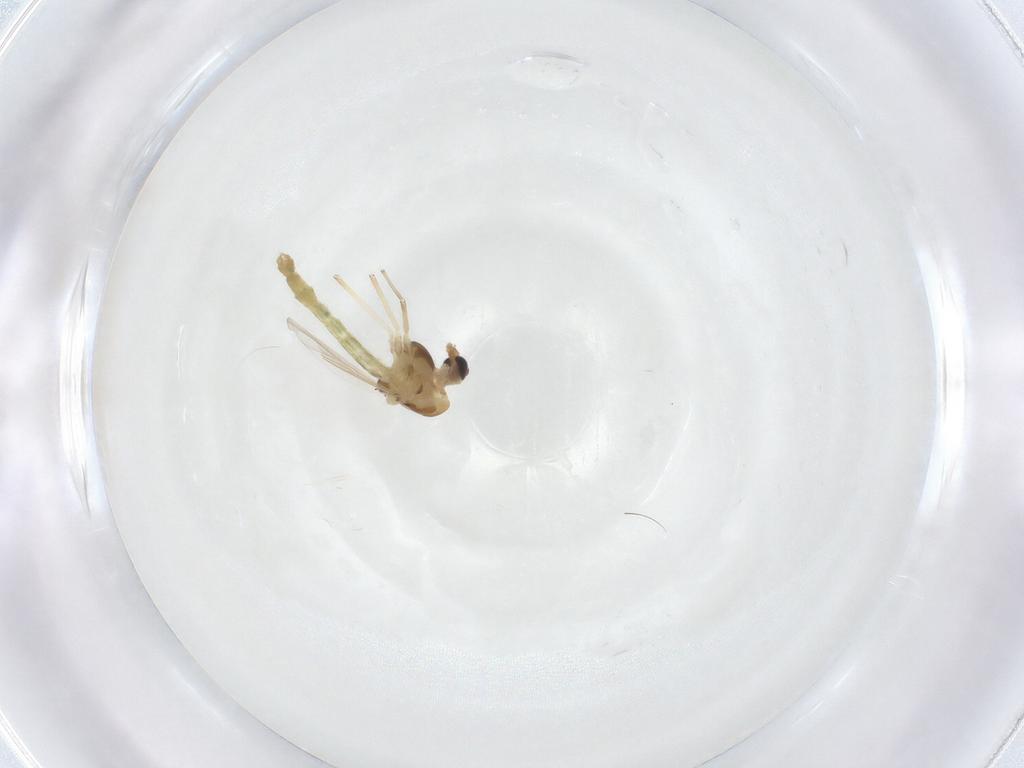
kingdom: Animalia
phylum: Arthropoda
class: Insecta
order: Diptera
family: Chironomidae
